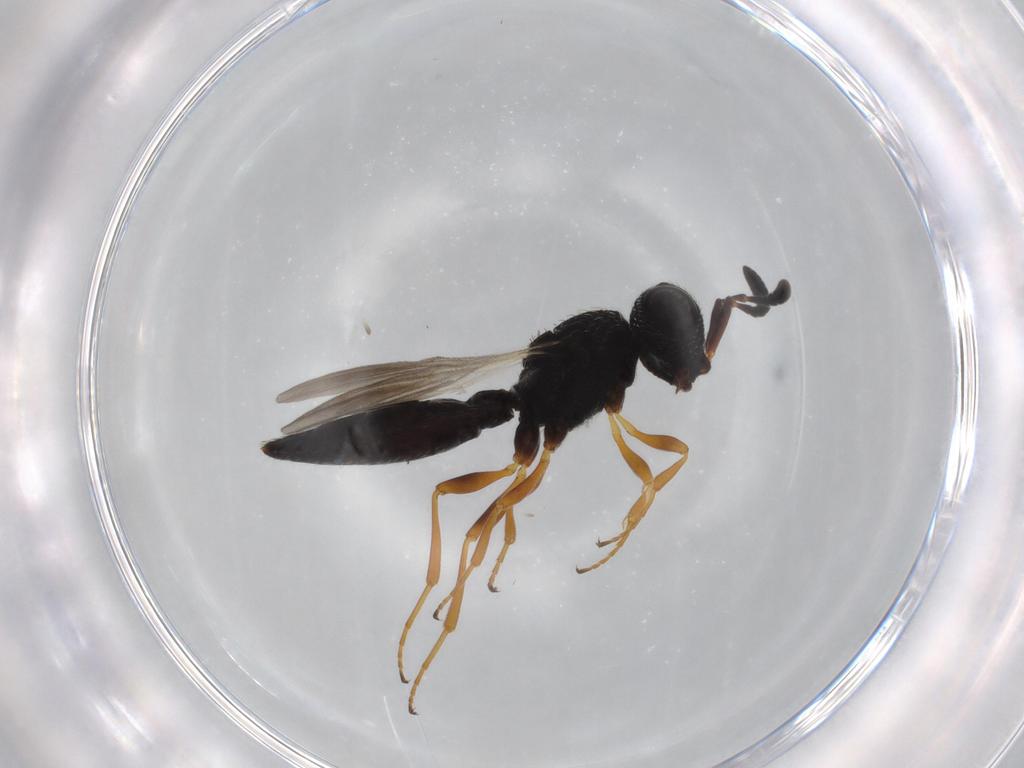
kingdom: Animalia
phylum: Arthropoda
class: Insecta
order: Hymenoptera
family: Scelionidae
